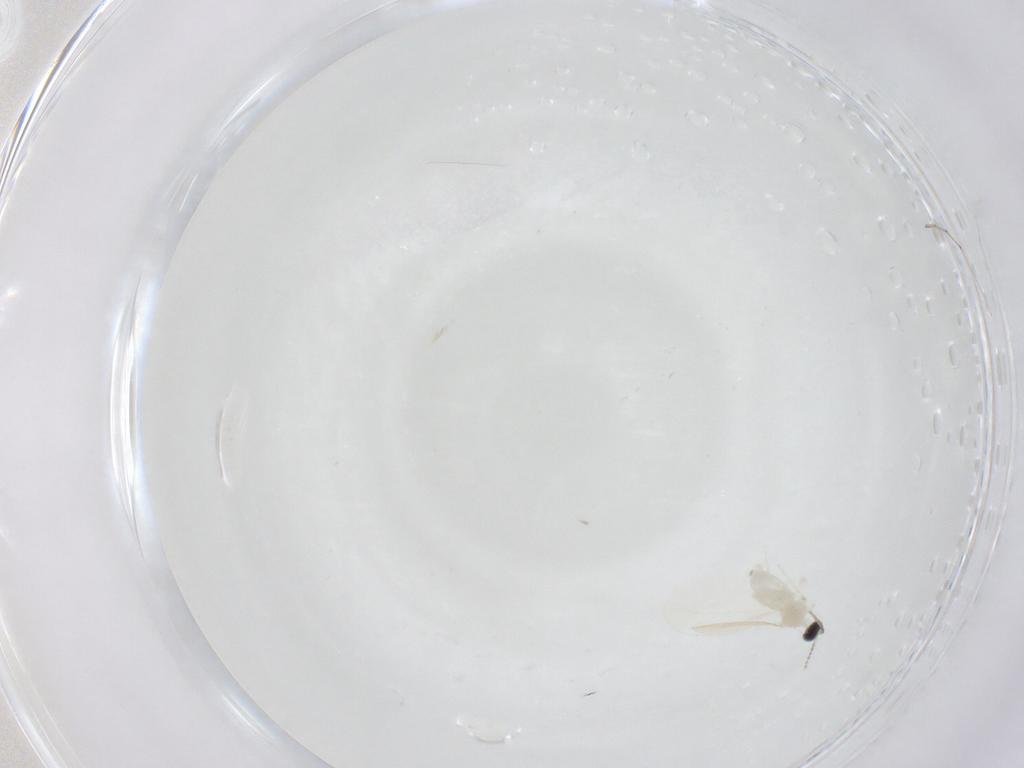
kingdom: Animalia
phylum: Arthropoda
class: Insecta
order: Diptera
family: Cecidomyiidae
